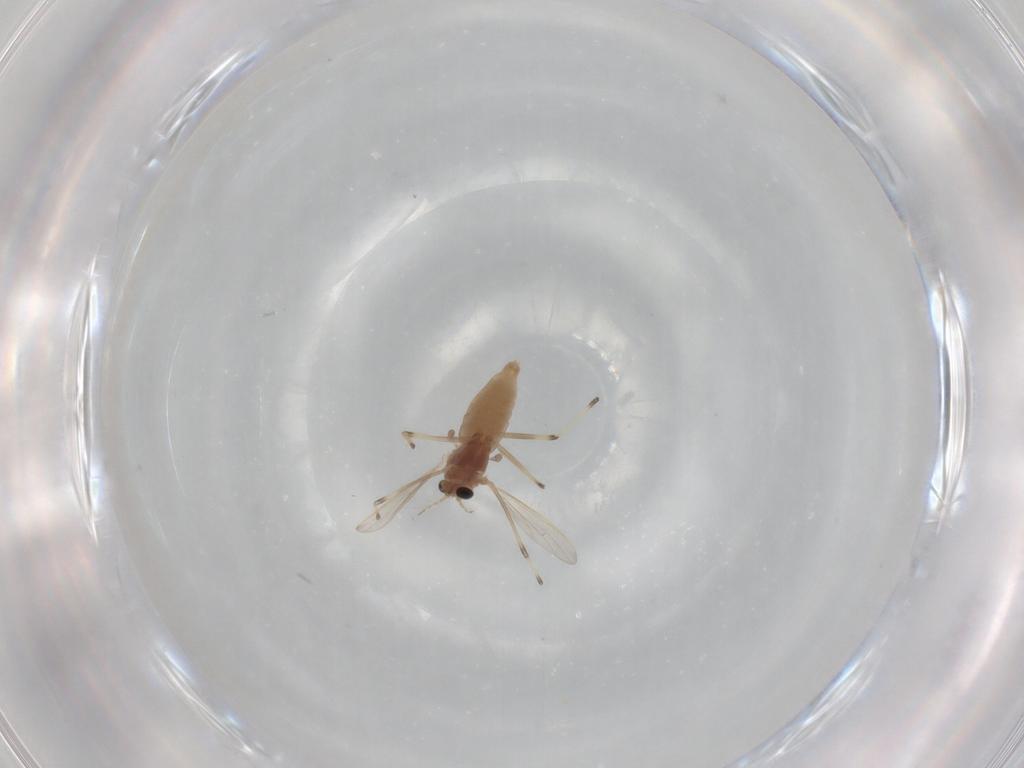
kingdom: Animalia
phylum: Arthropoda
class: Insecta
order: Diptera
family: Chironomidae
